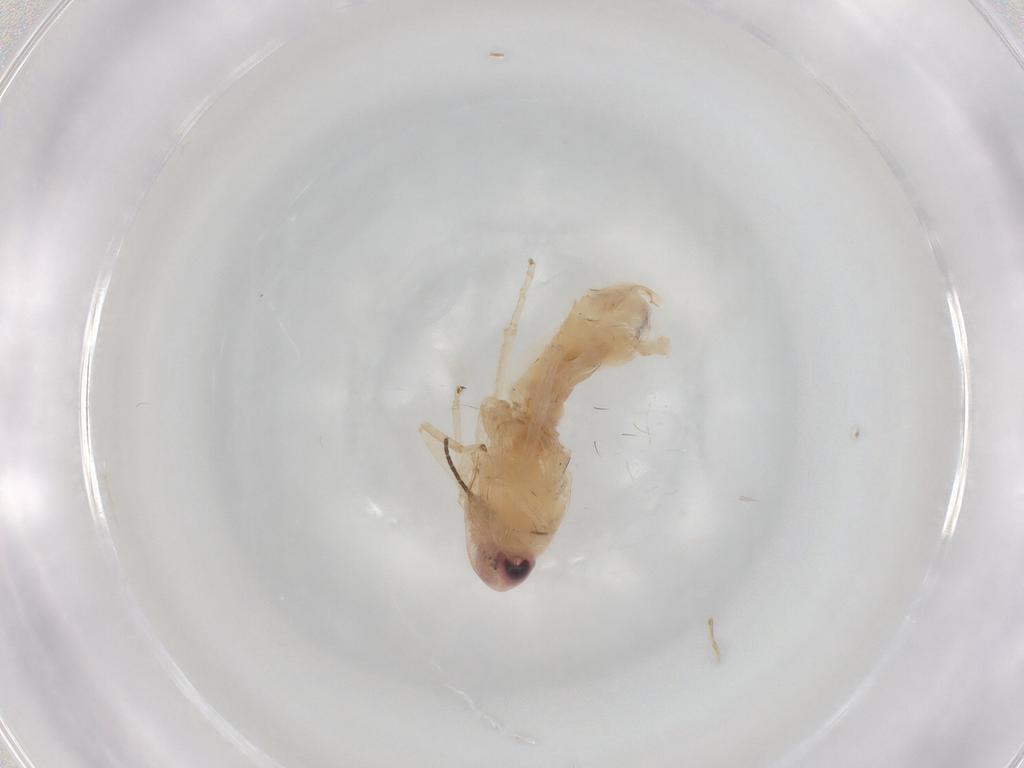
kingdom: Animalia
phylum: Arthropoda
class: Insecta
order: Hemiptera
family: Cicadellidae
